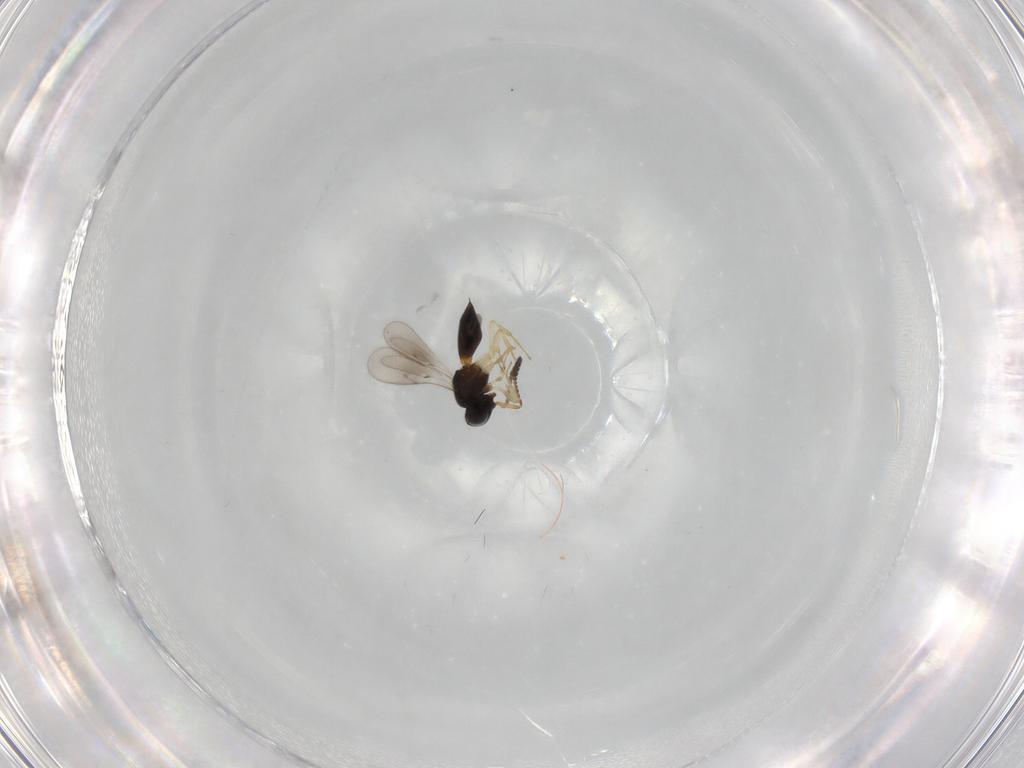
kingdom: Animalia
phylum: Arthropoda
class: Insecta
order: Hymenoptera
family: Scelionidae
